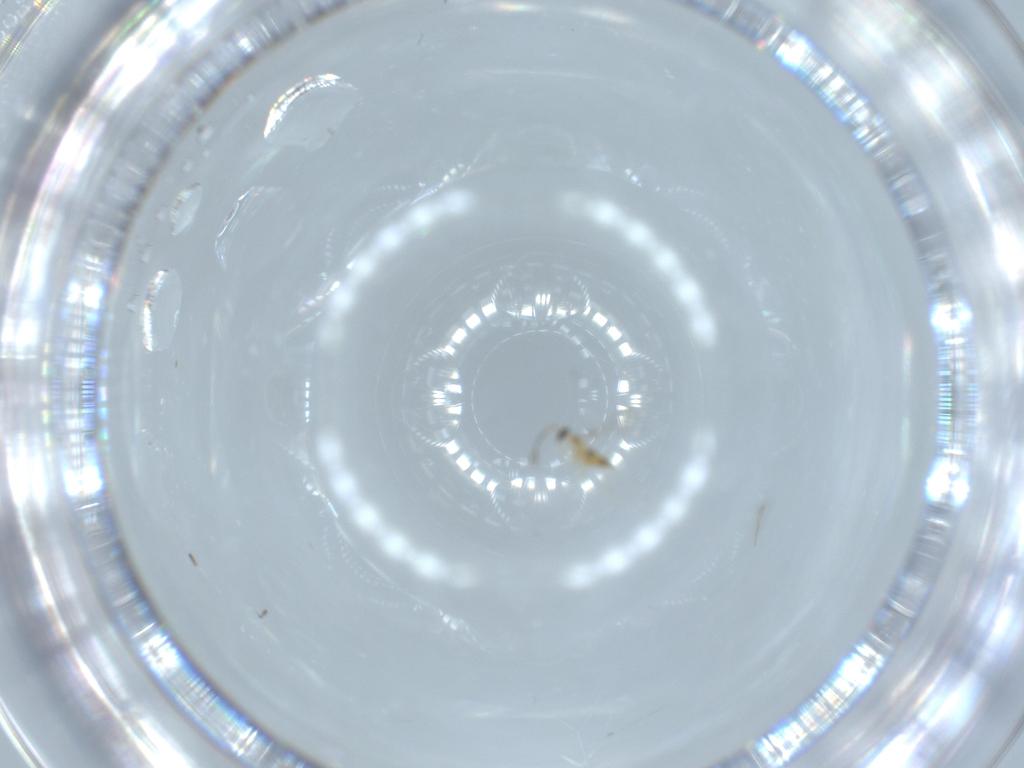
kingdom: Animalia
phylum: Arthropoda
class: Insecta
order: Hymenoptera
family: Mymaridae
